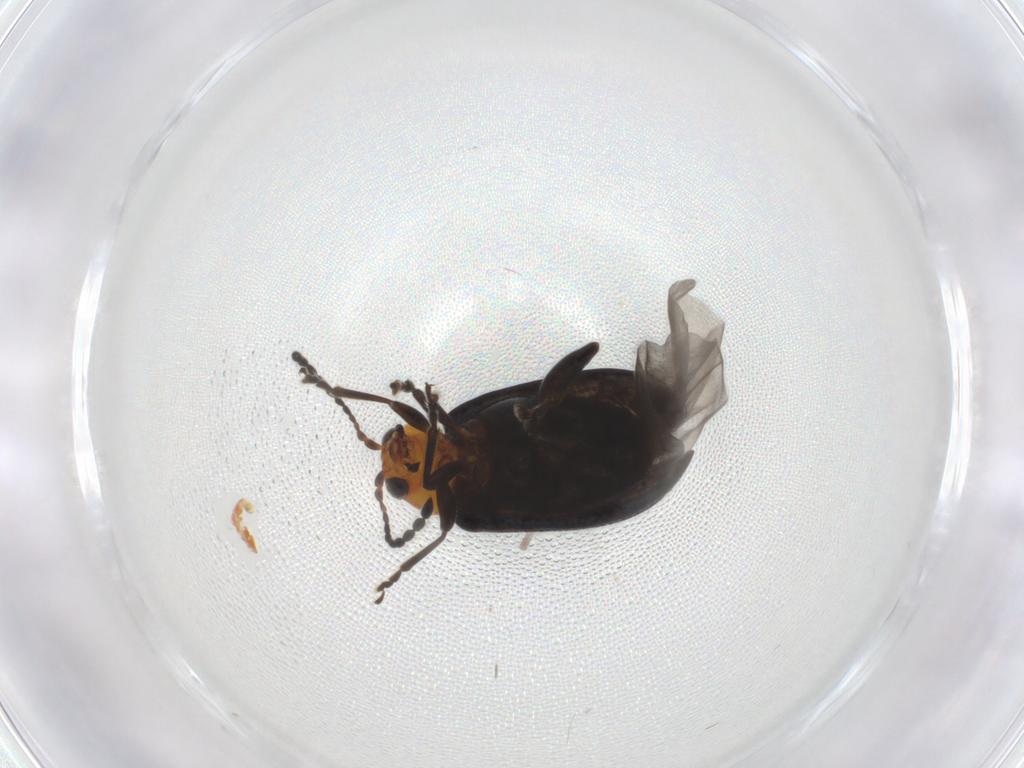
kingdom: Animalia
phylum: Arthropoda
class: Insecta
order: Coleoptera
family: Chrysomelidae
